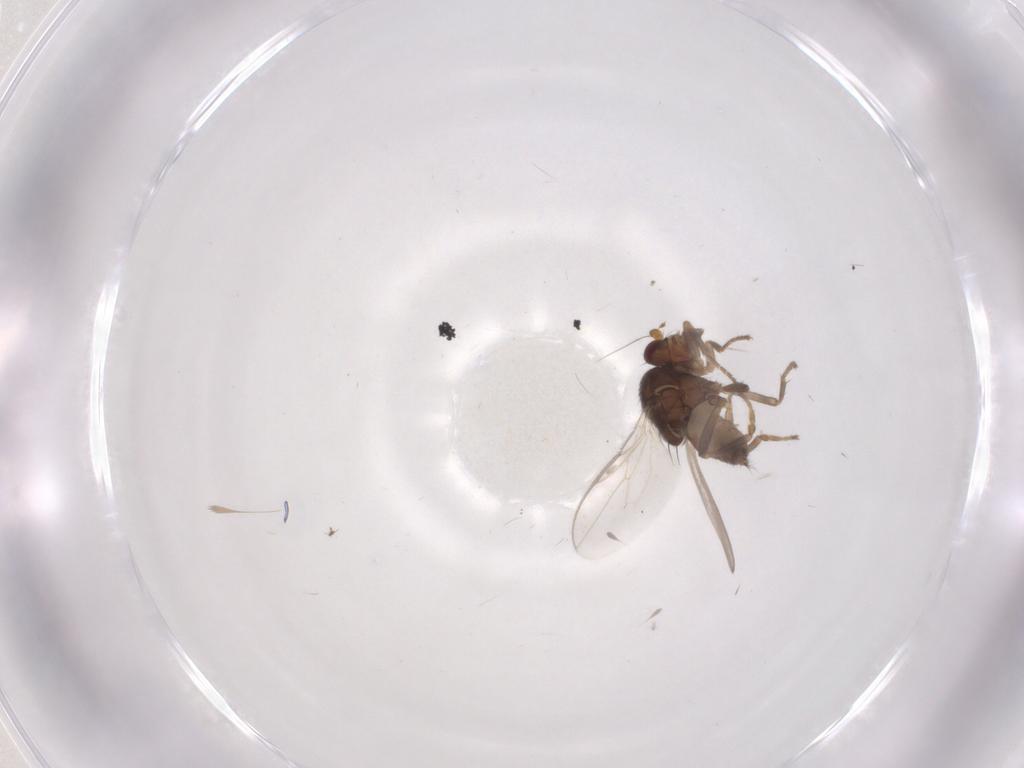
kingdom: Animalia
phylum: Arthropoda
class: Insecta
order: Diptera
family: Sphaeroceridae
